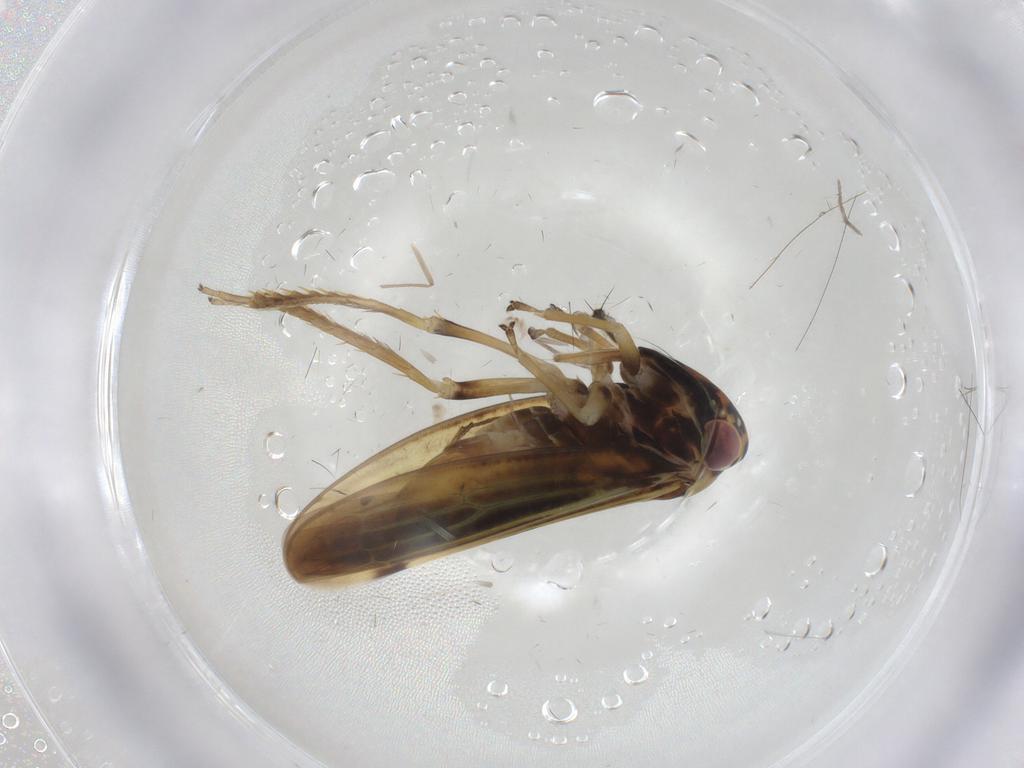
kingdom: Animalia
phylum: Arthropoda
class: Insecta
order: Hemiptera
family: Cicadellidae
